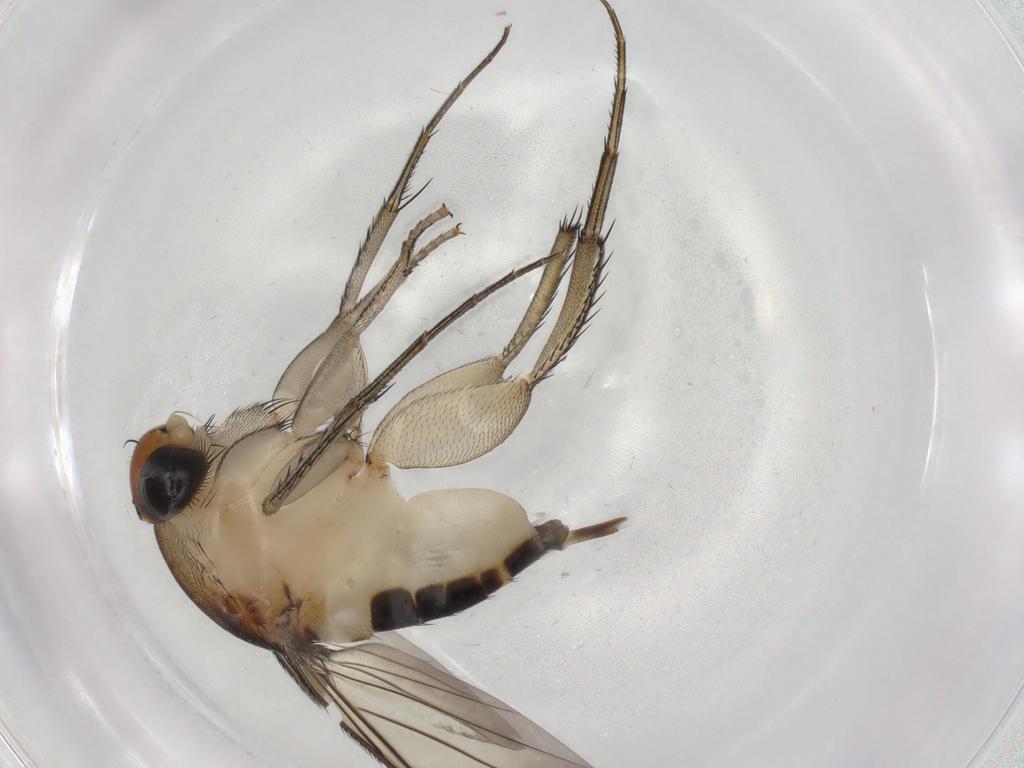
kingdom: Animalia
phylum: Arthropoda
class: Insecta
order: Diptera
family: Phoridae
